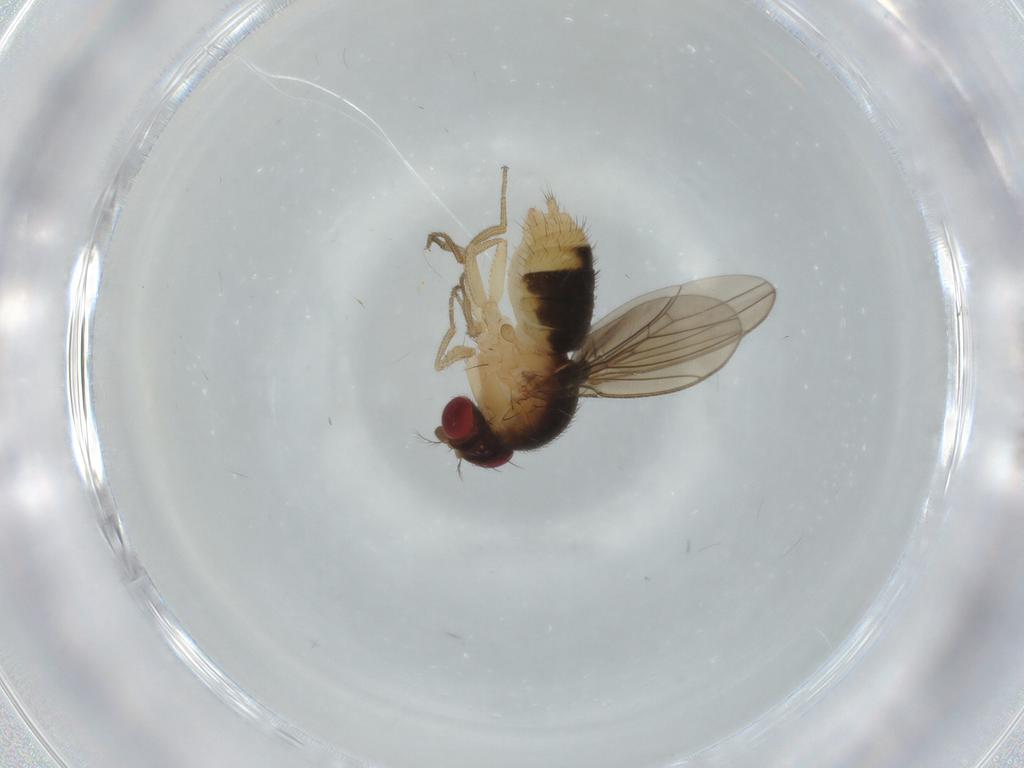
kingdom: Animalia
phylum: Arthropoda
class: Insecta
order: Diptera
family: Drosophilidae
